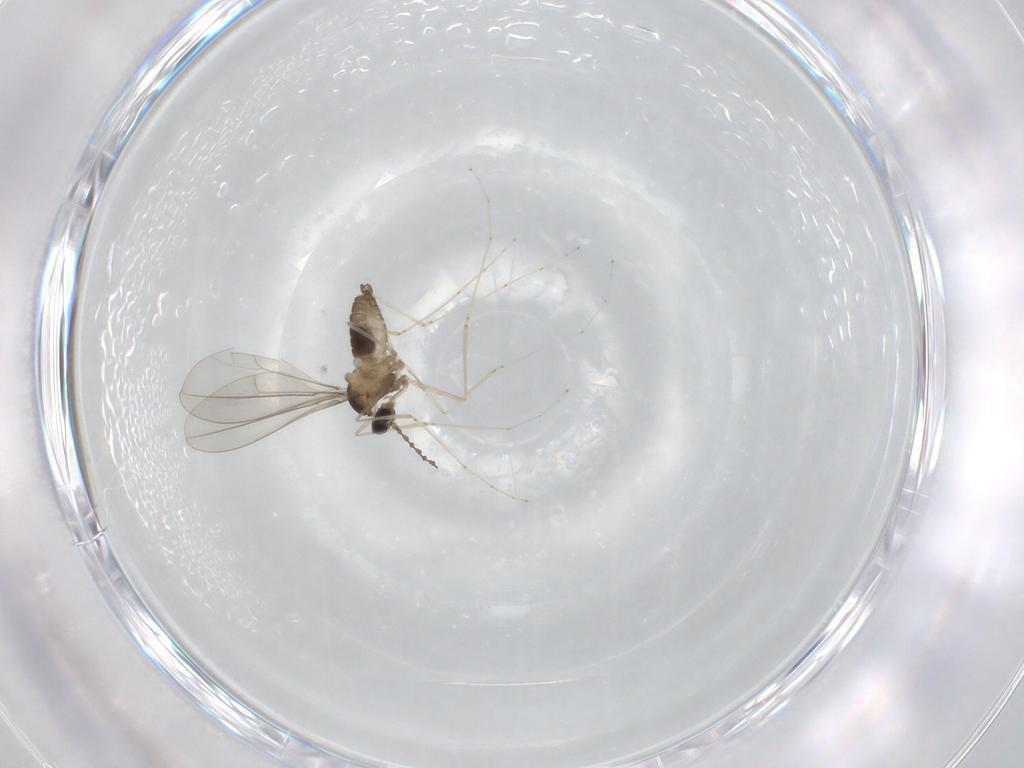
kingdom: Animalia
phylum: Arthropoda
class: Insecta
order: Diptera
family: Cecidomyiidae
